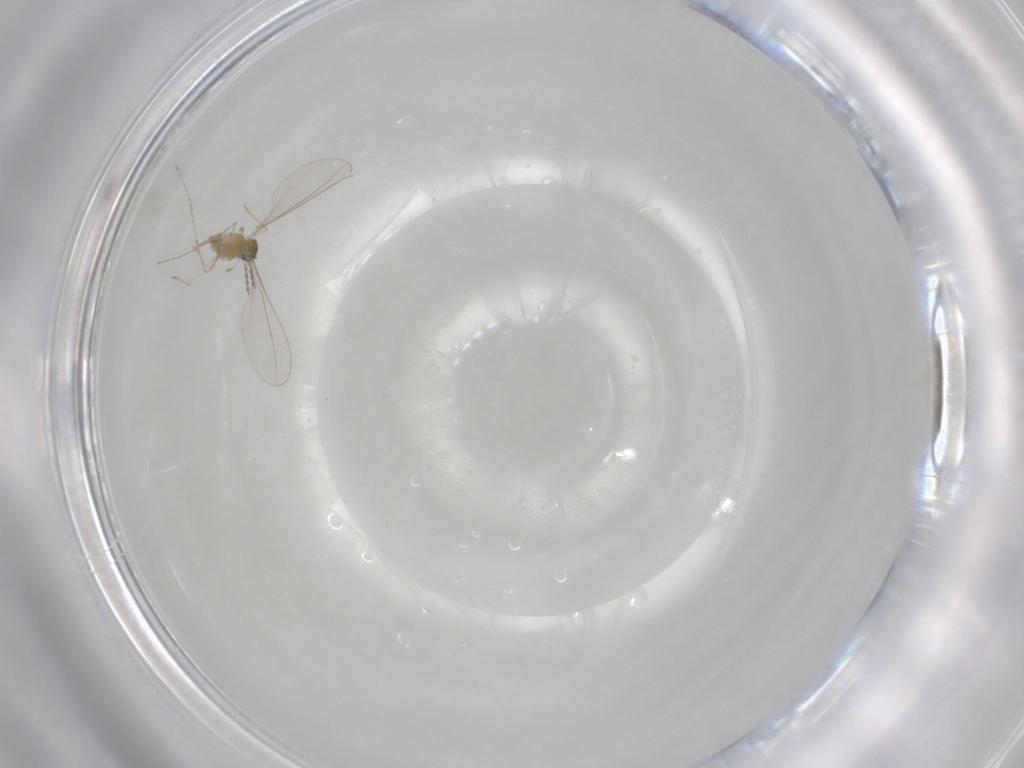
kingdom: Animalia
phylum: Arthropoda
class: Insecta
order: Diptera
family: Cecidomyiidae
